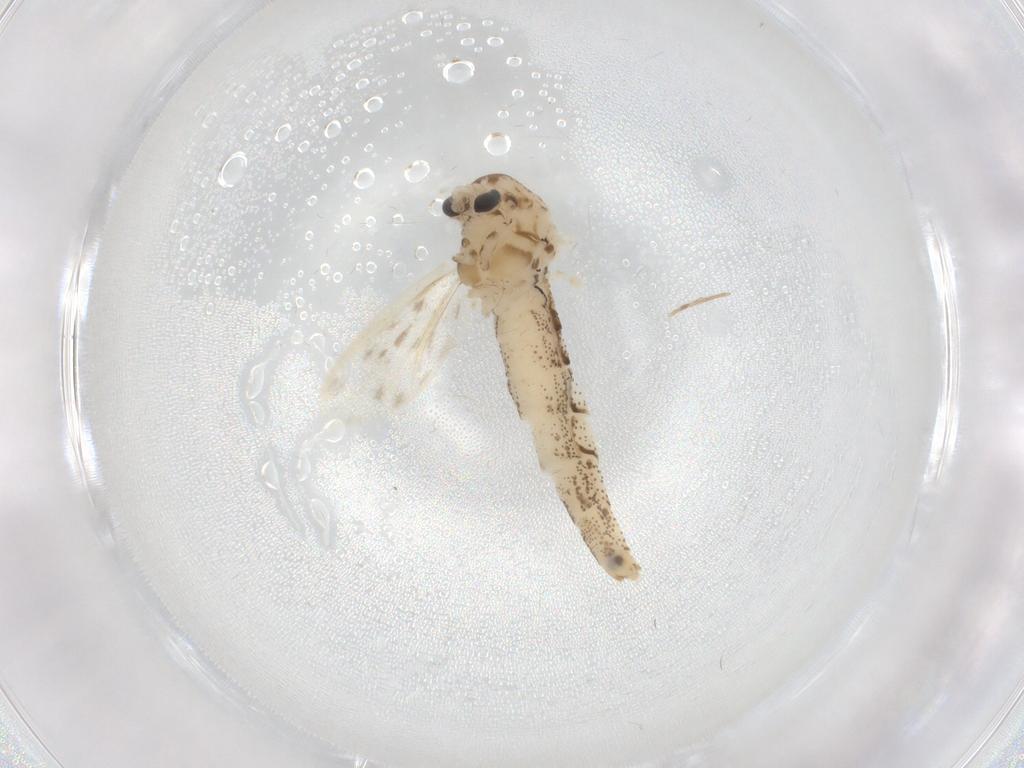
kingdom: Animalia
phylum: Arthropoda
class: Insecta
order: Diptera
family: Chaoboridae
